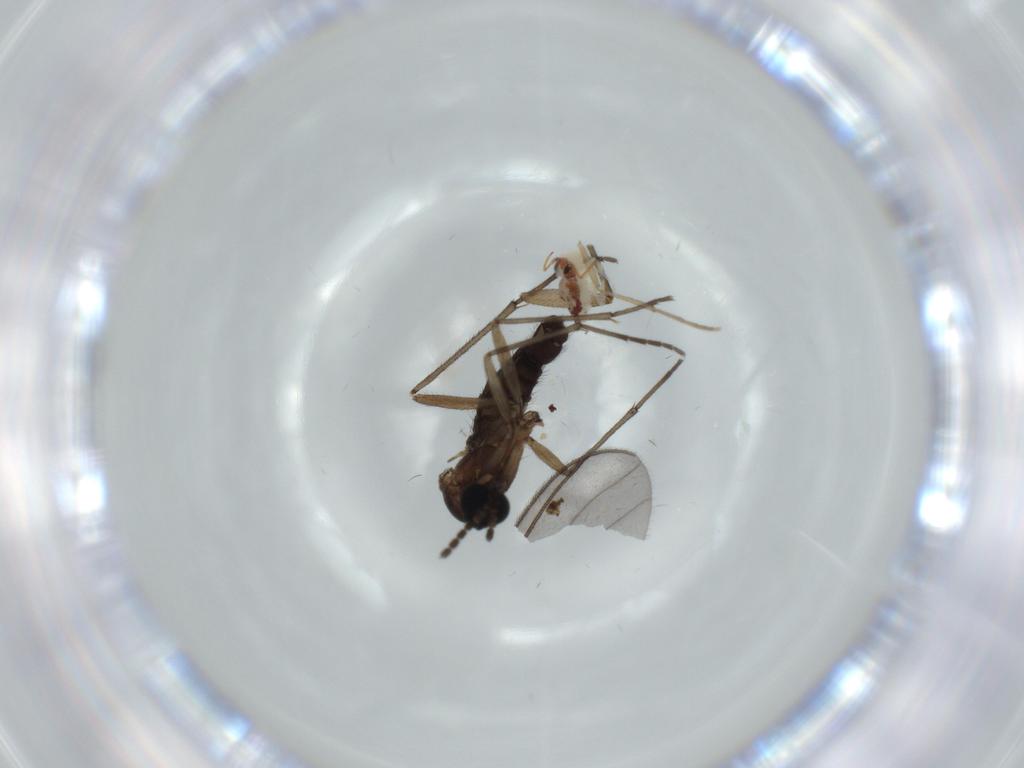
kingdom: Animalia
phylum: Arthropoda
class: Insecta
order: Diptera
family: Sciaridae
